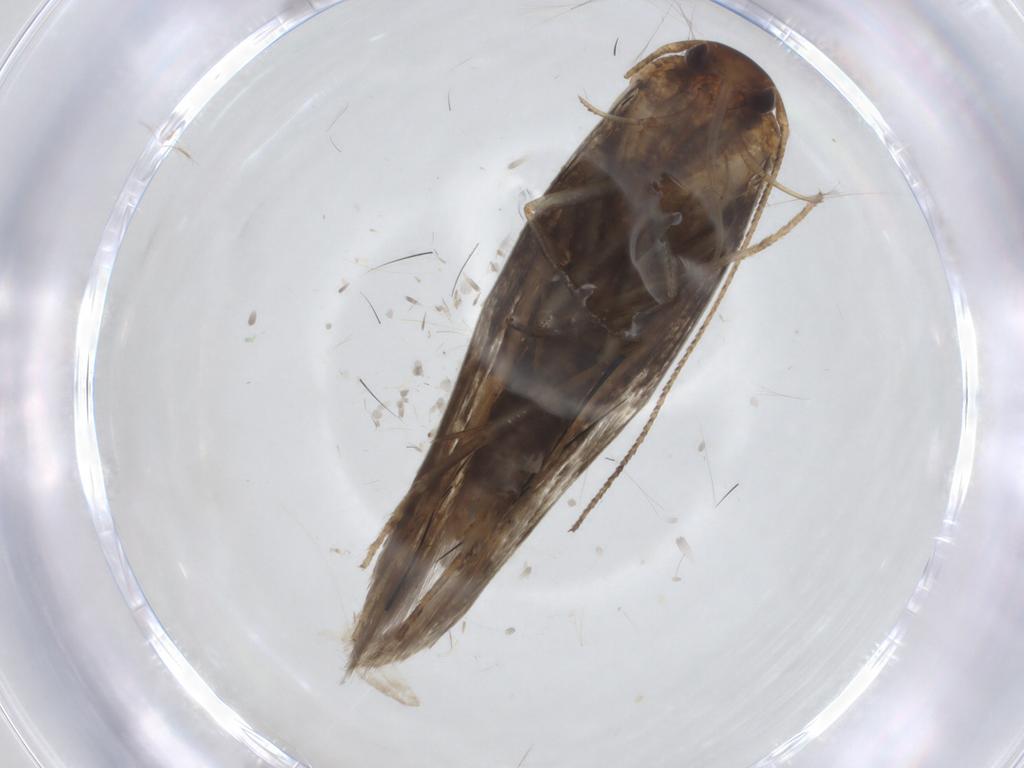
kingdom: Animalia
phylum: Arthropoda
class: Insecta
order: Lepidoptera
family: Momphidae
